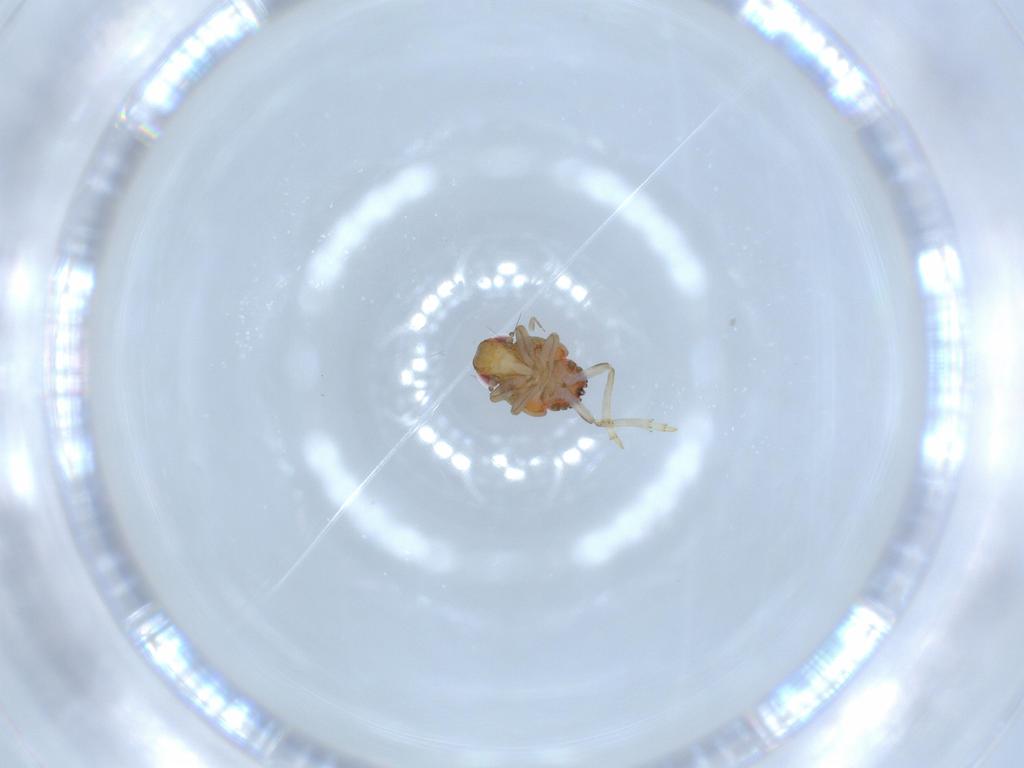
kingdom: Animalia
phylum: Arthropoda
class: Insecta
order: Hemiptera
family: Issidae
